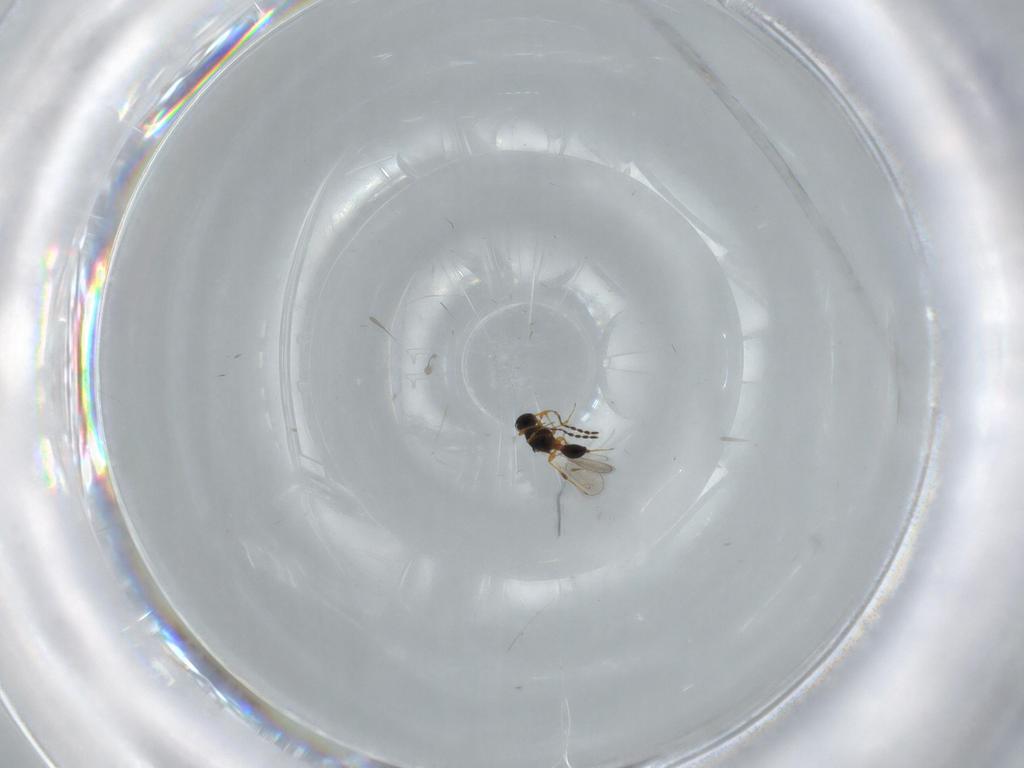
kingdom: Animalia
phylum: Arthropoda
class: Insecta
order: Hymenoptera
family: Platygastridae
